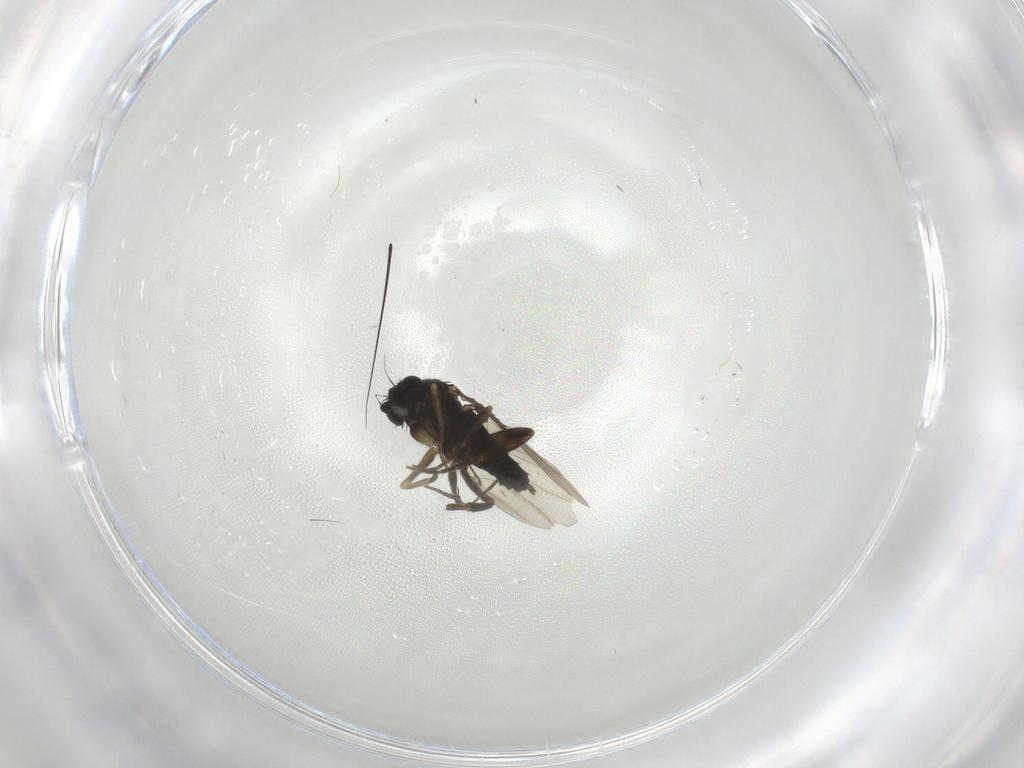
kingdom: Animalia
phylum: Arthropoda
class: Insecta
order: Diptera
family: Phoridae
